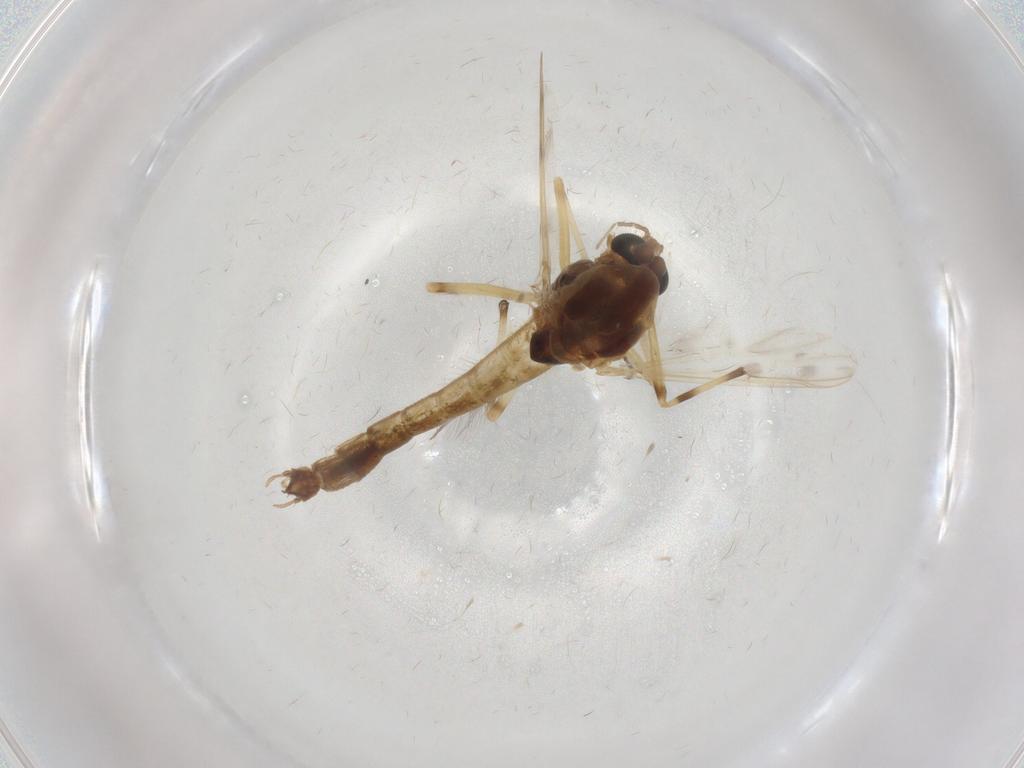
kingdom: Animalia
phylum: Arthropoda
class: Insecta
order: Diptera
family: Chironomidae
